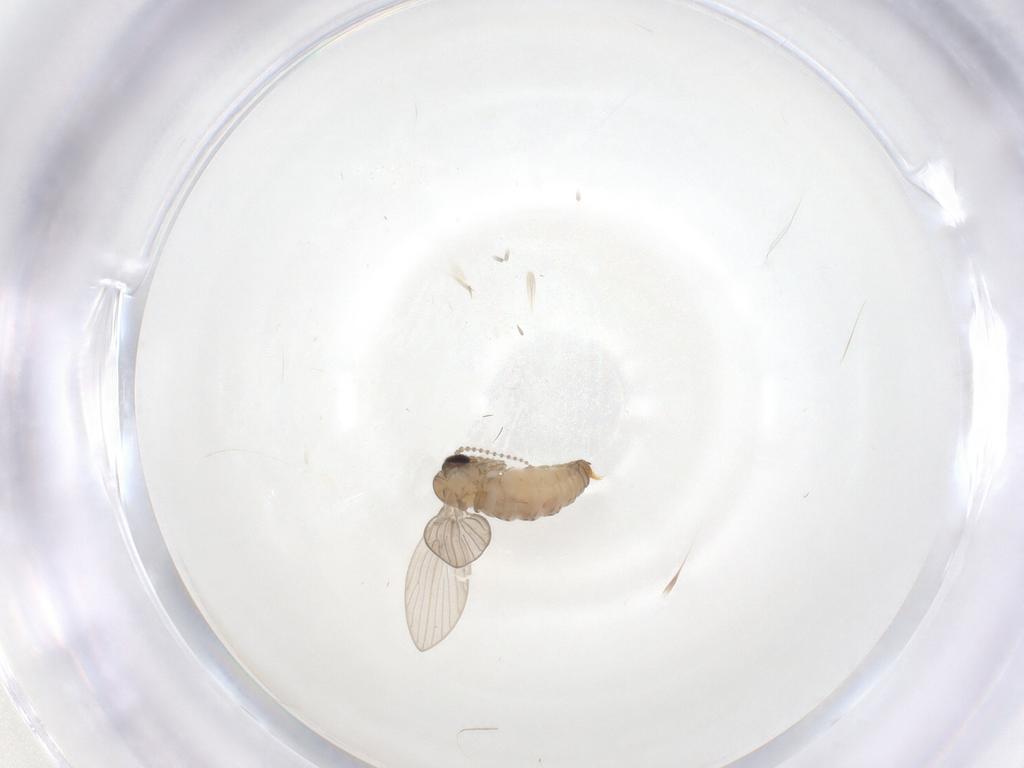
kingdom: Animalia
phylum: Arthropoda
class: Insecta
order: Diptera
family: Psychodidae
